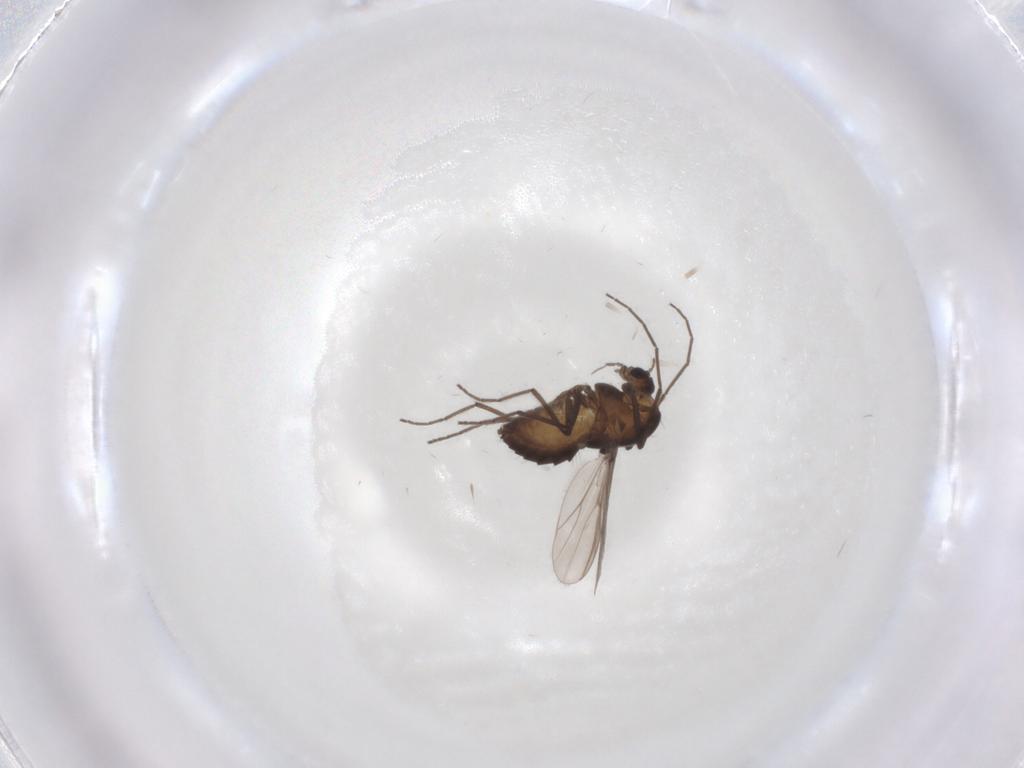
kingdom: Animalia
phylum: Arthropoda
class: Insecta
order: Diptera
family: Chironomidae
